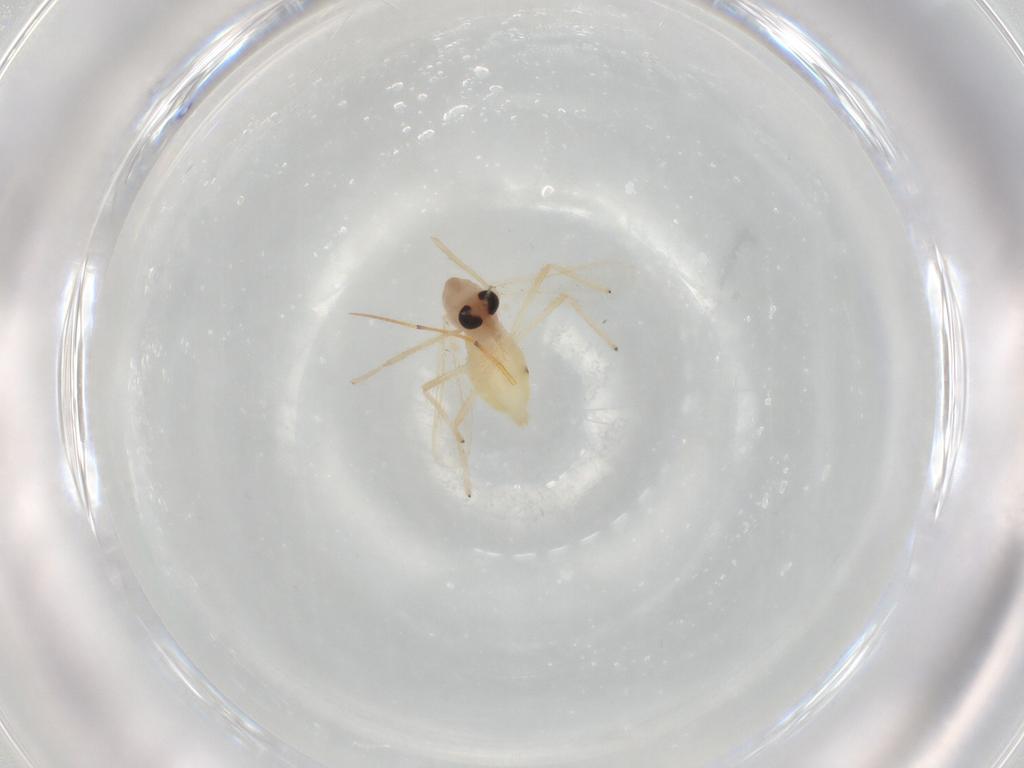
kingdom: Animalia
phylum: Arthropoda
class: Insecta
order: Diptera
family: Chironomidae
